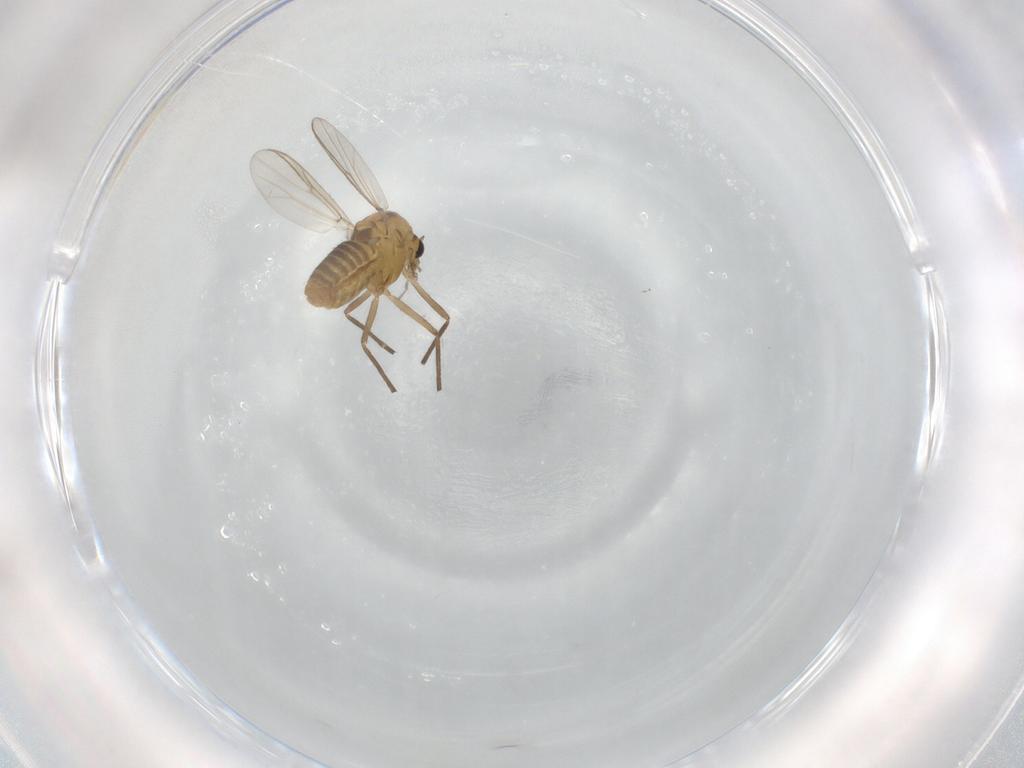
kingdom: Animalia
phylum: Arthropoda
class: Insecta
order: Diptera
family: Chironomidae
